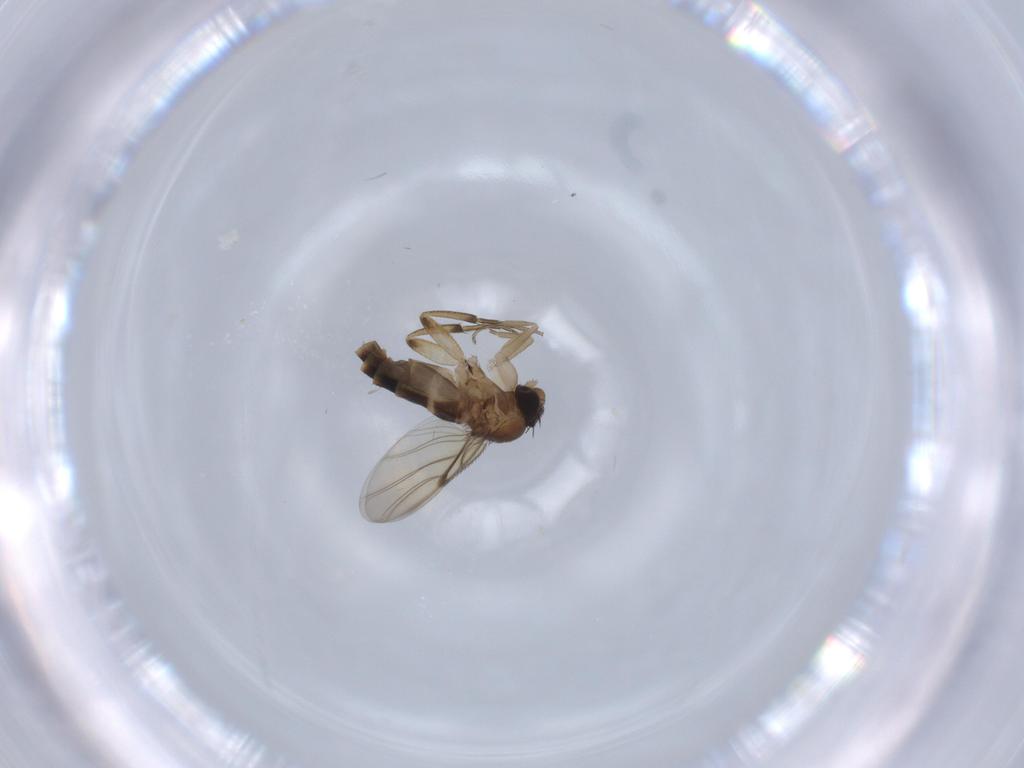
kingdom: Animalia
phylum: Arthropoda
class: Insecta
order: Diptera
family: Phoridae
